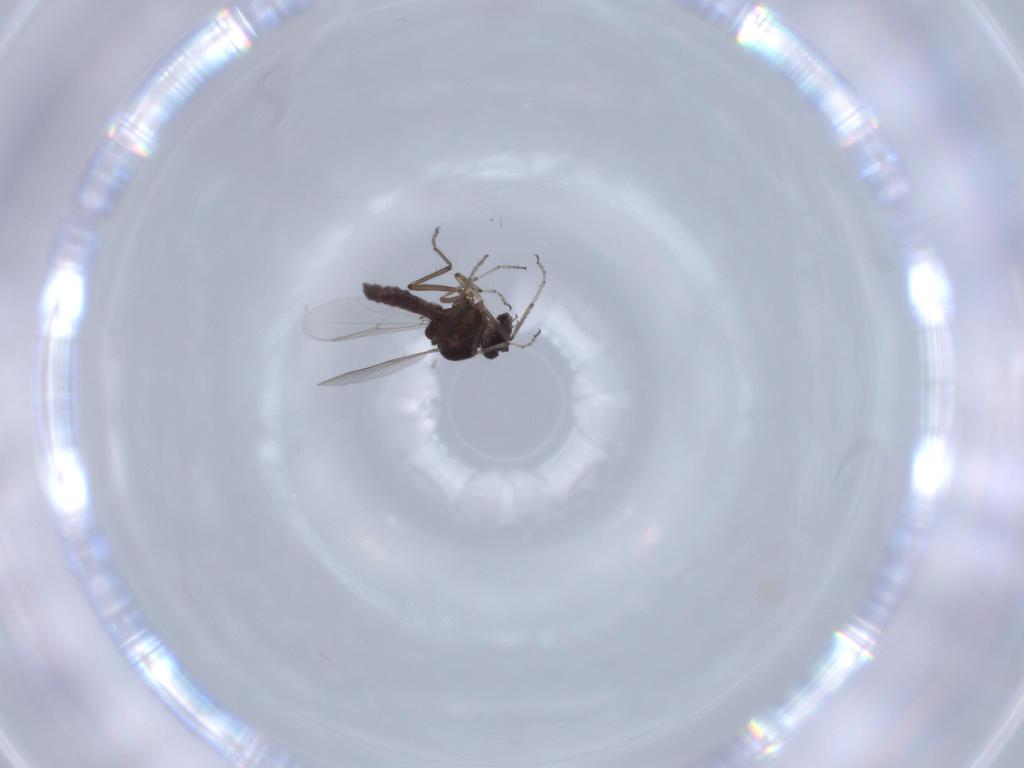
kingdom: Animalia
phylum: Arthropoda
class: Insecta
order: Diptera
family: Ceratopogonidae
